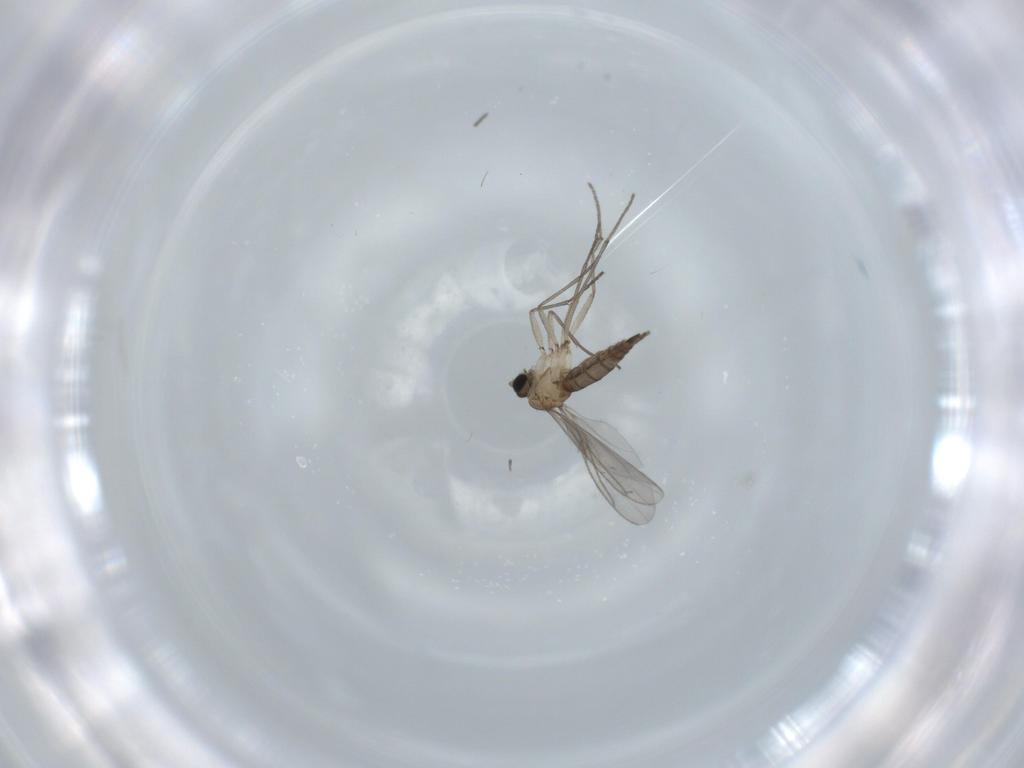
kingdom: Animalia
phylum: Arthropoda
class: Insecta
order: Diptera
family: Sciaridae
